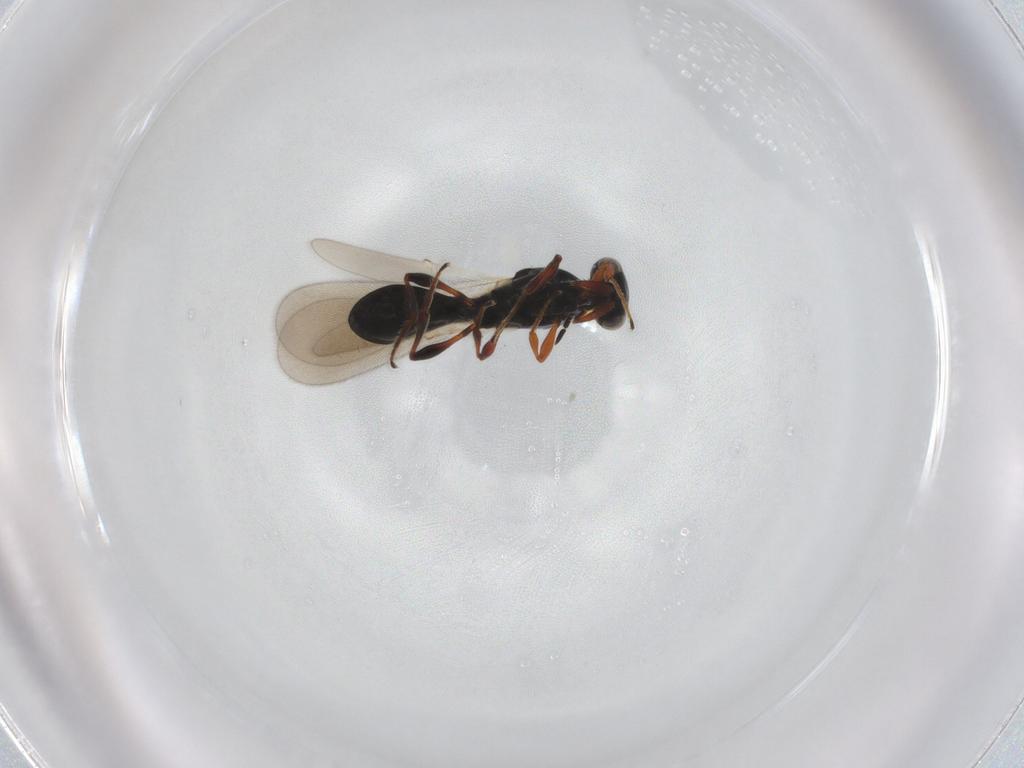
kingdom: Animalia
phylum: Arthropoda
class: Insecta
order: Hymenoptera
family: Platygastridae
